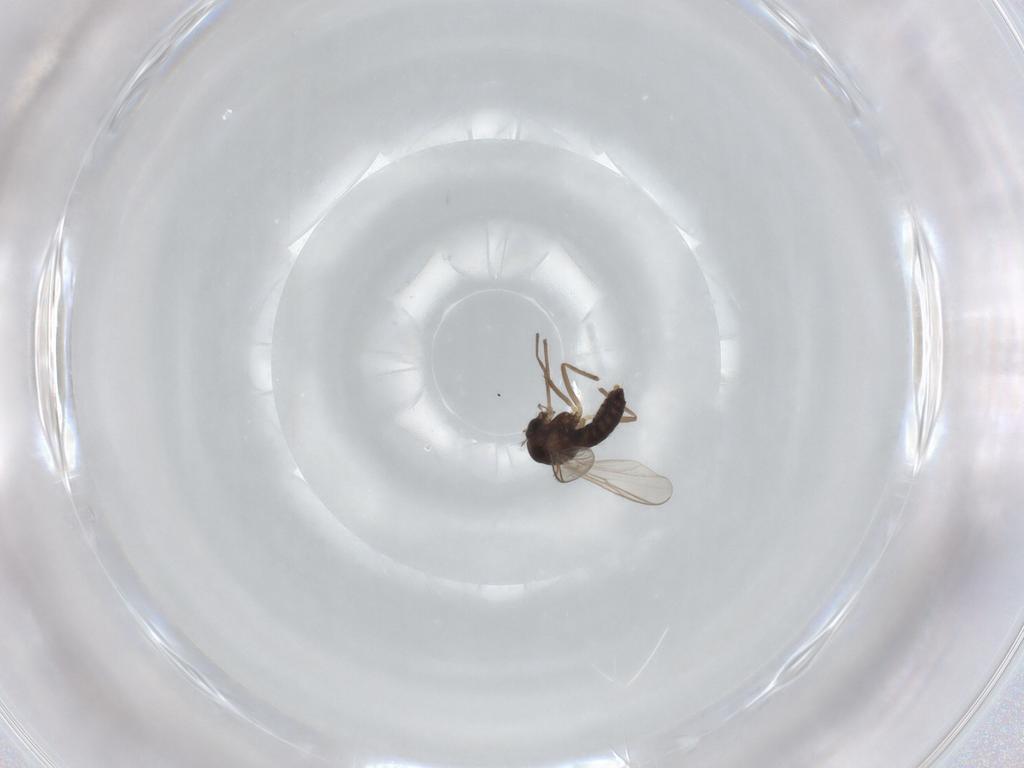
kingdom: Animalia
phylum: Arthropoda
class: Insecta
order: Diptera
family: Chironomidae
